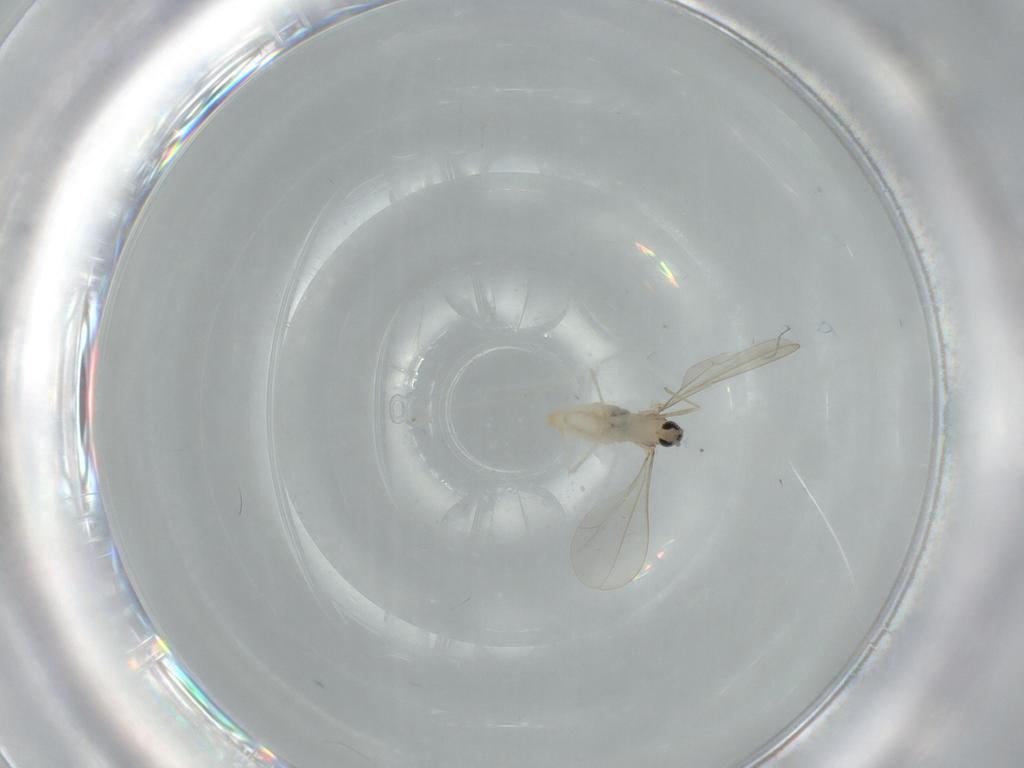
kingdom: Animalia
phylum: Arthropoda
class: Insecta
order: Diptera
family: Cecidomyiidae
